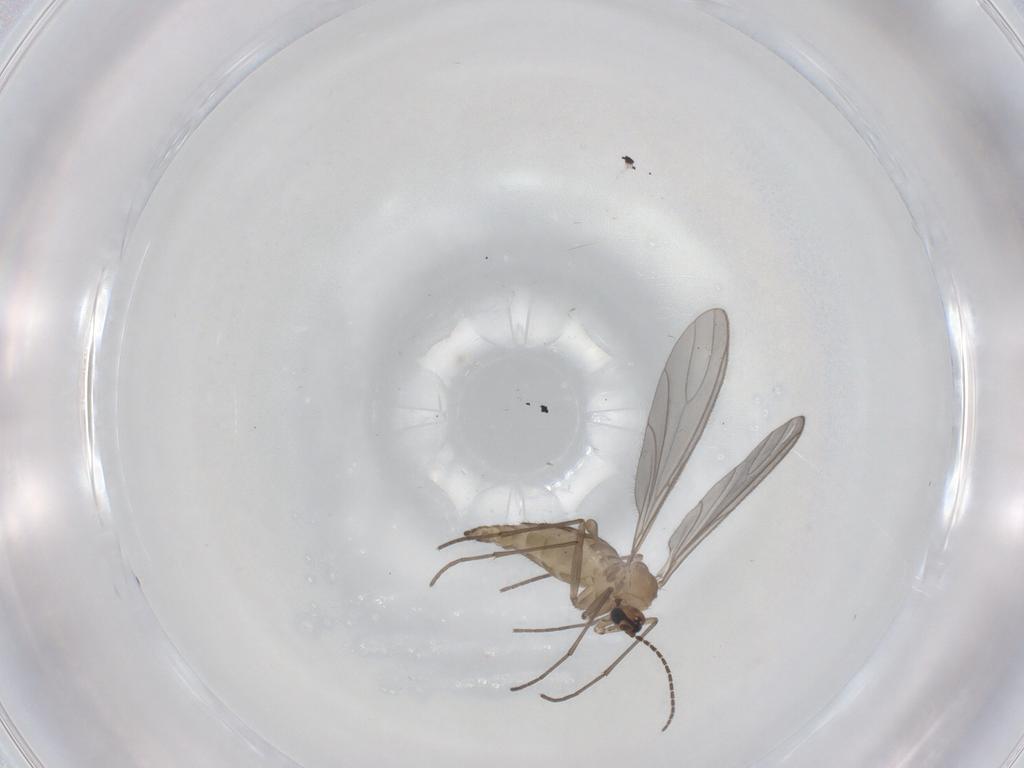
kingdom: Animalia
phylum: Arthropoda
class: Insecta
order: Diptera
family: Sciaridae
